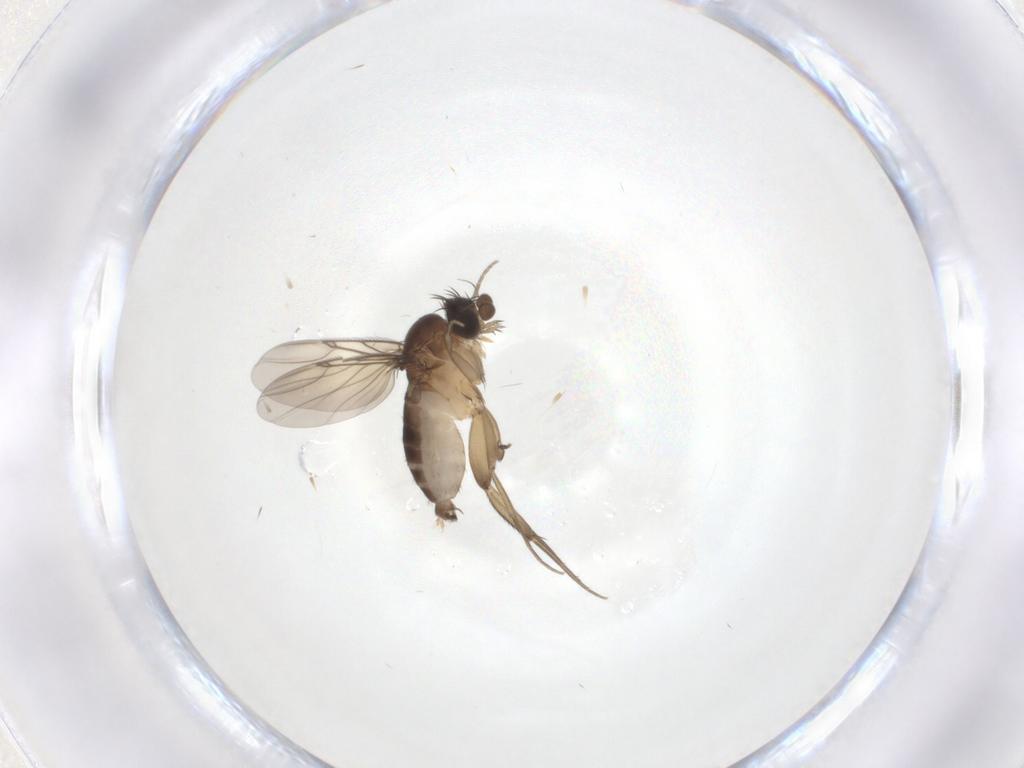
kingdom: Animalia
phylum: Arthropoda
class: Insecta
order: Diptera
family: Phoridae
